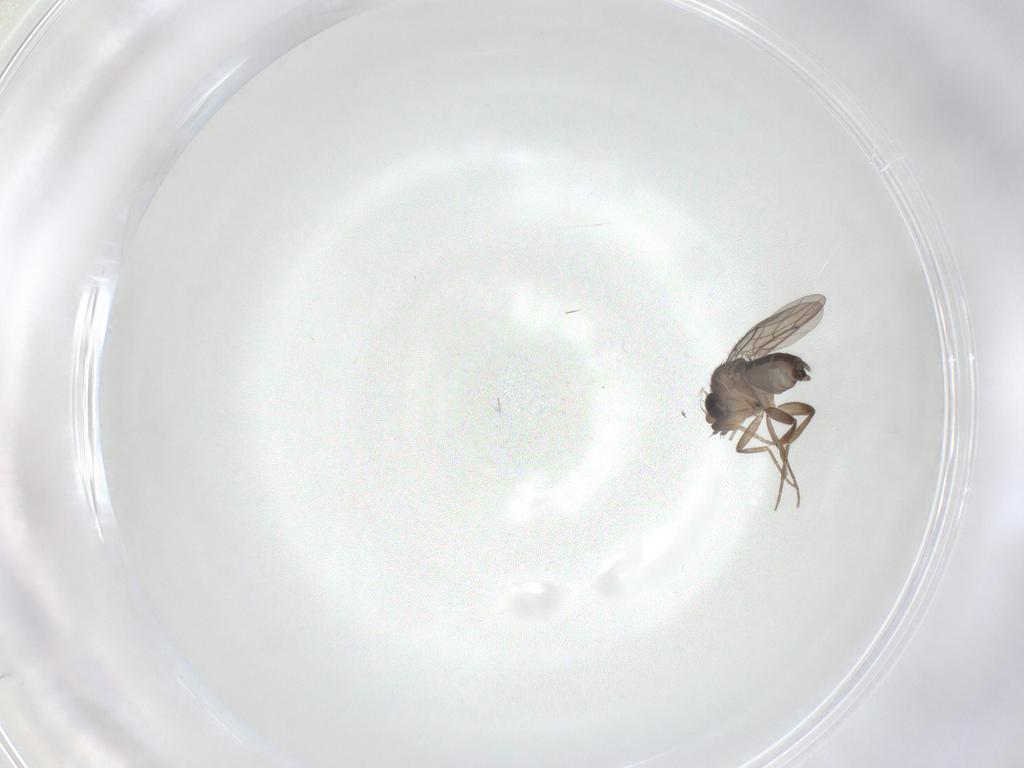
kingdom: Animalia
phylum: Arthropoda
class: Insecta
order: Diptera
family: Phoridae
